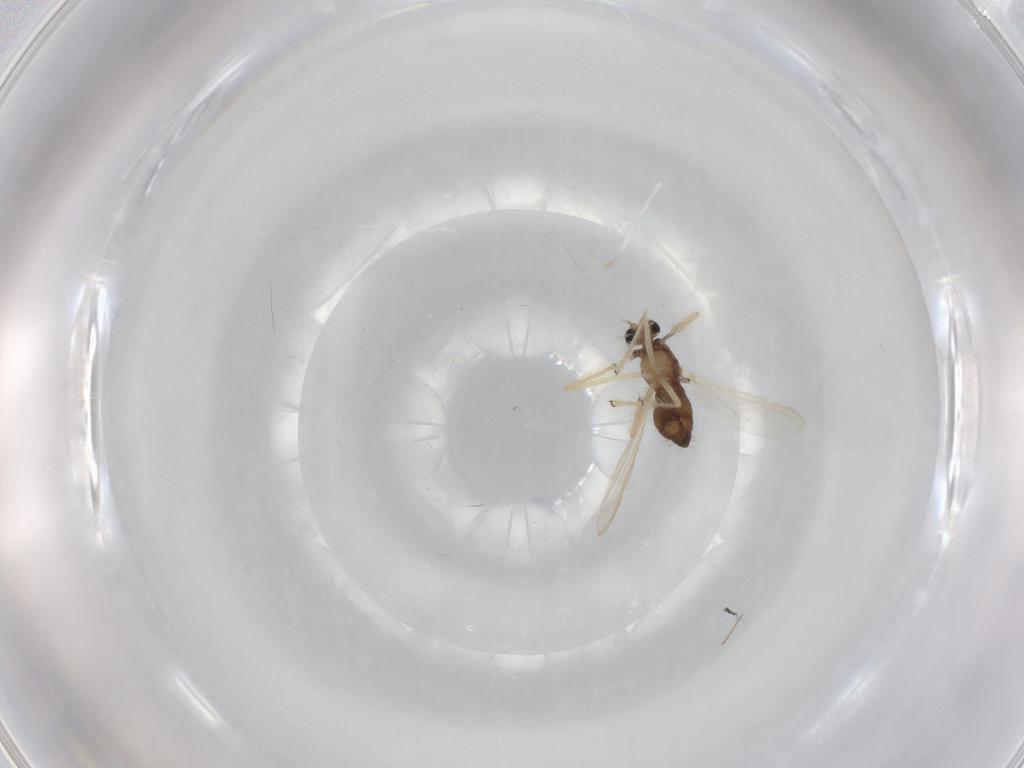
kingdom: Animalia
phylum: Arthropoda
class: Insecta
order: Diptera
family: Chironomidae
